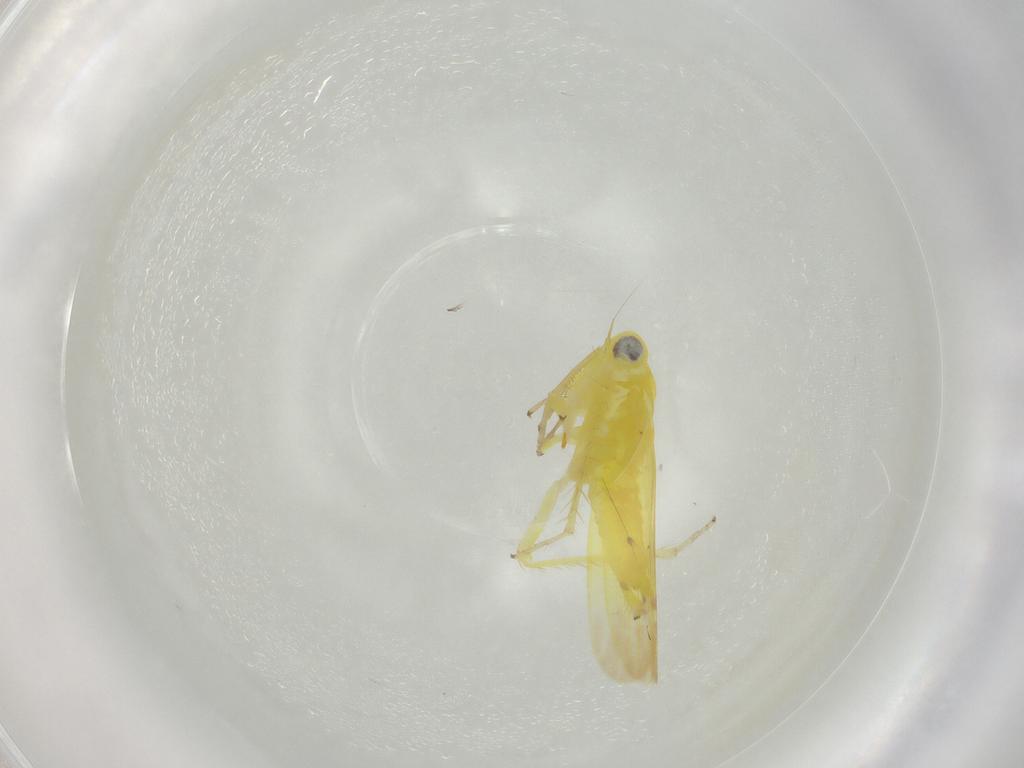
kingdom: Animalia
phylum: Arthropoda
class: Insecta
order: Hemiptera
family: Cicadellidae
